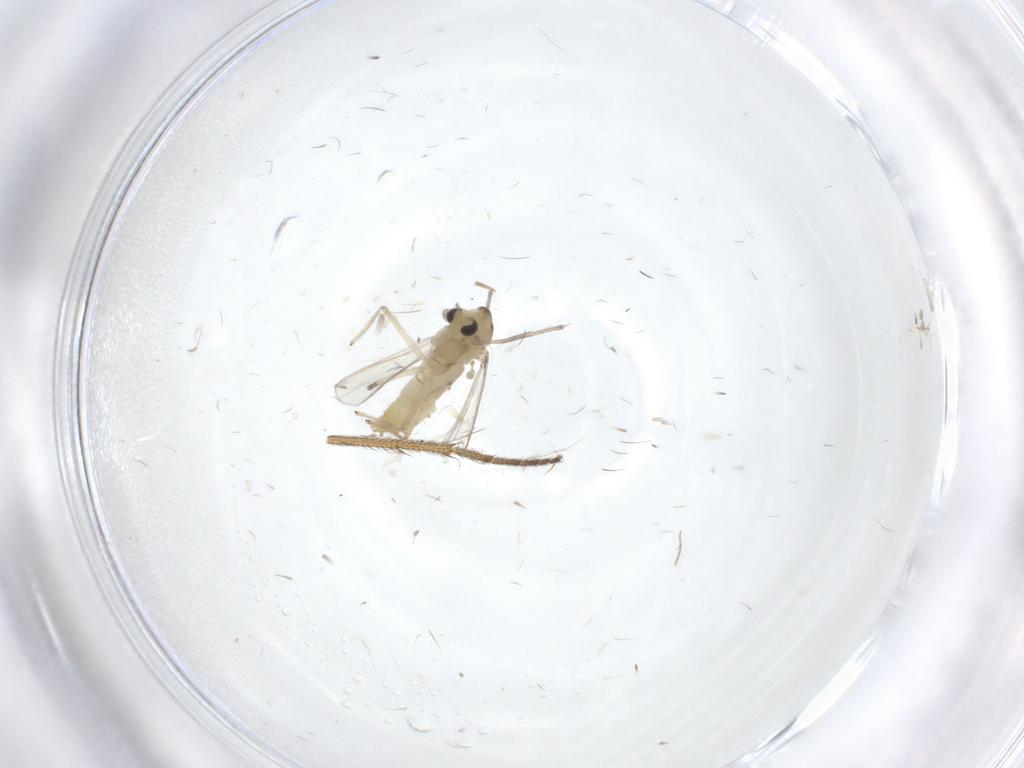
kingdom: Animalia
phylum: Arthropoda
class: Insecta
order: Diptera
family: Chironomidae
